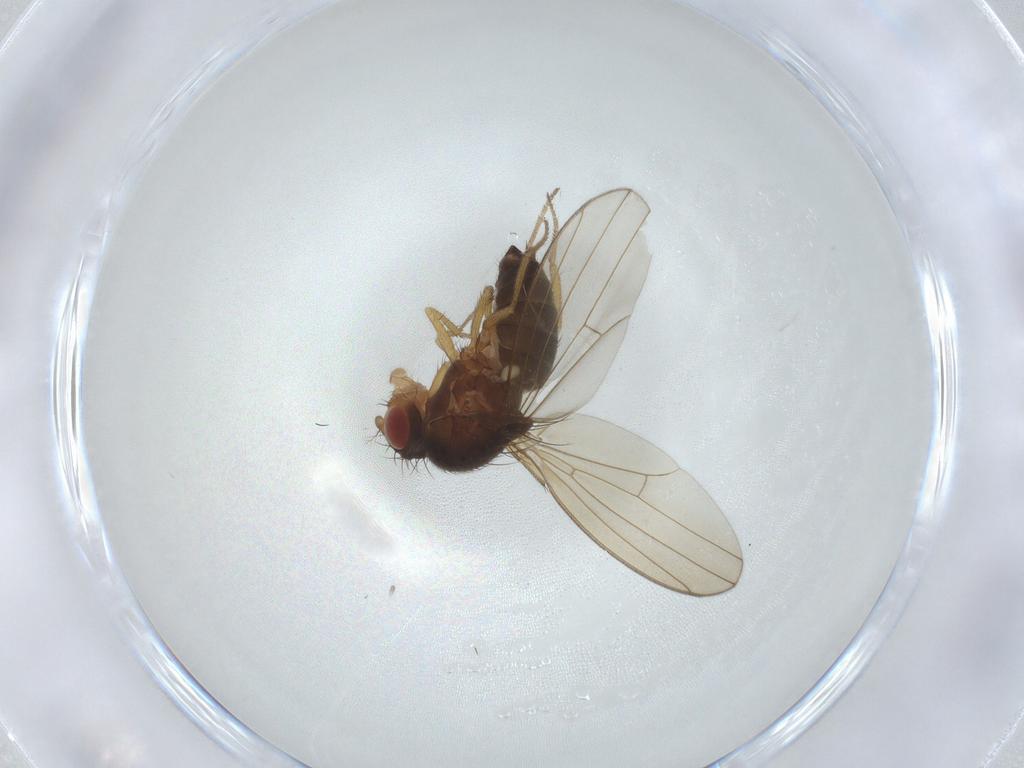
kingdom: Animalia
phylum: Arthropoda
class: Insecta
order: Diptera
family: Drosophilidae
